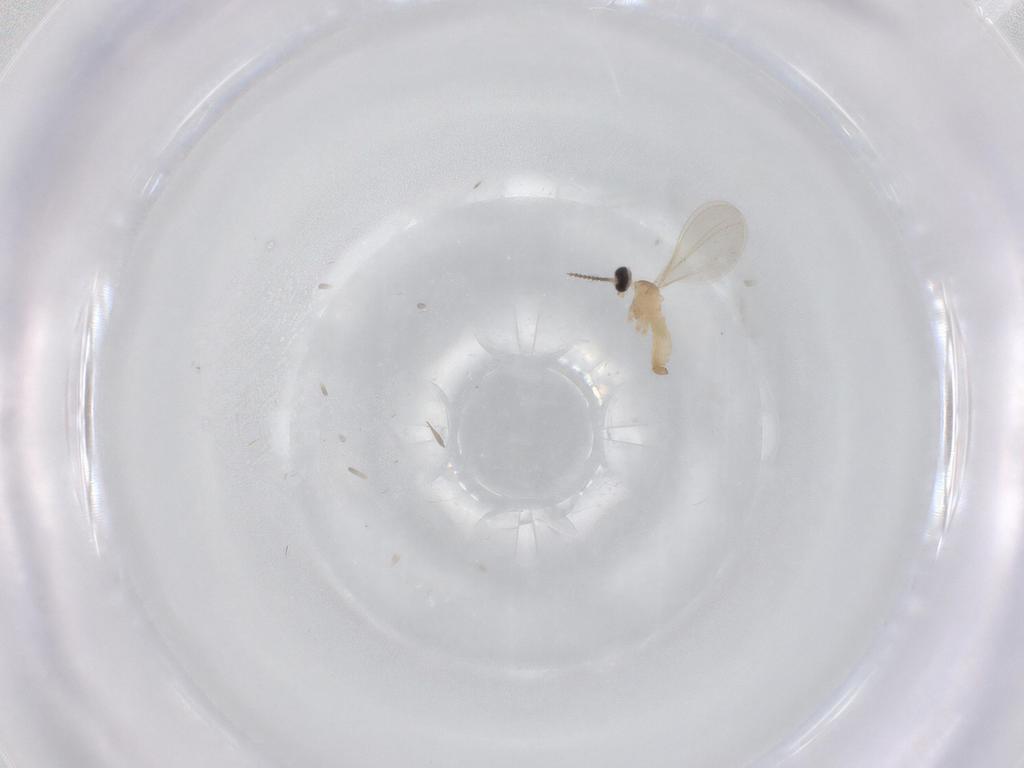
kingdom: Animalia
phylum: Arthropoda
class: Insecta
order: Diptera
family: Cecidomyiidae
